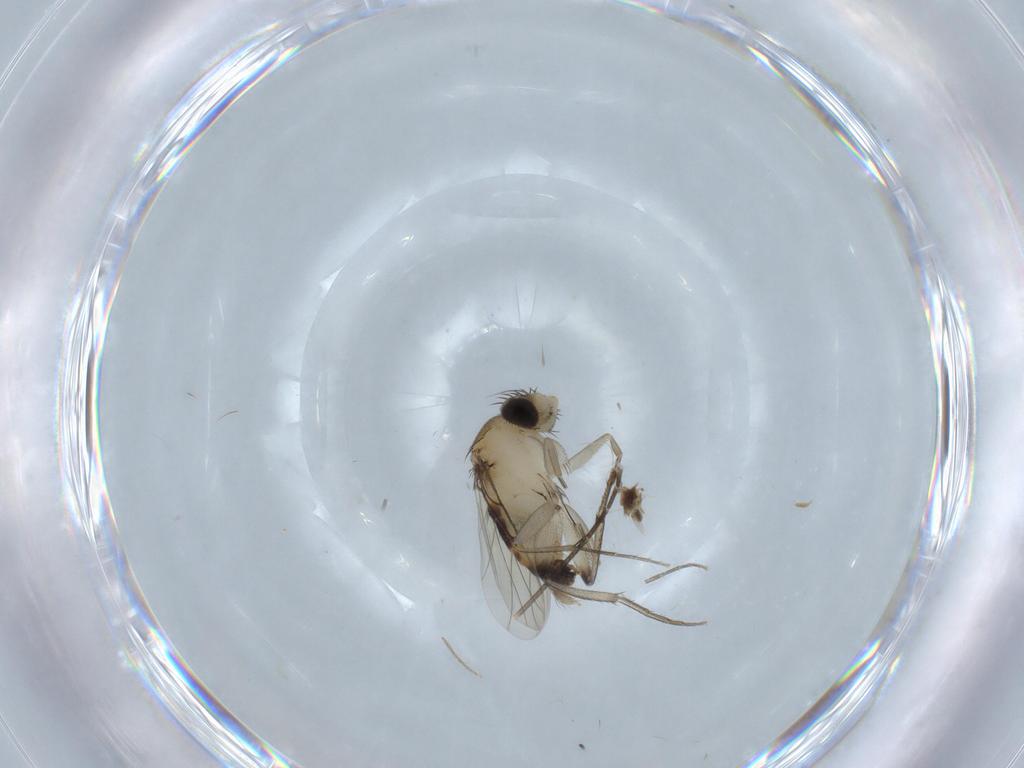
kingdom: Animalia
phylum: Arthropoda
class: Insecta
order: Diptera
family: Phoridae
